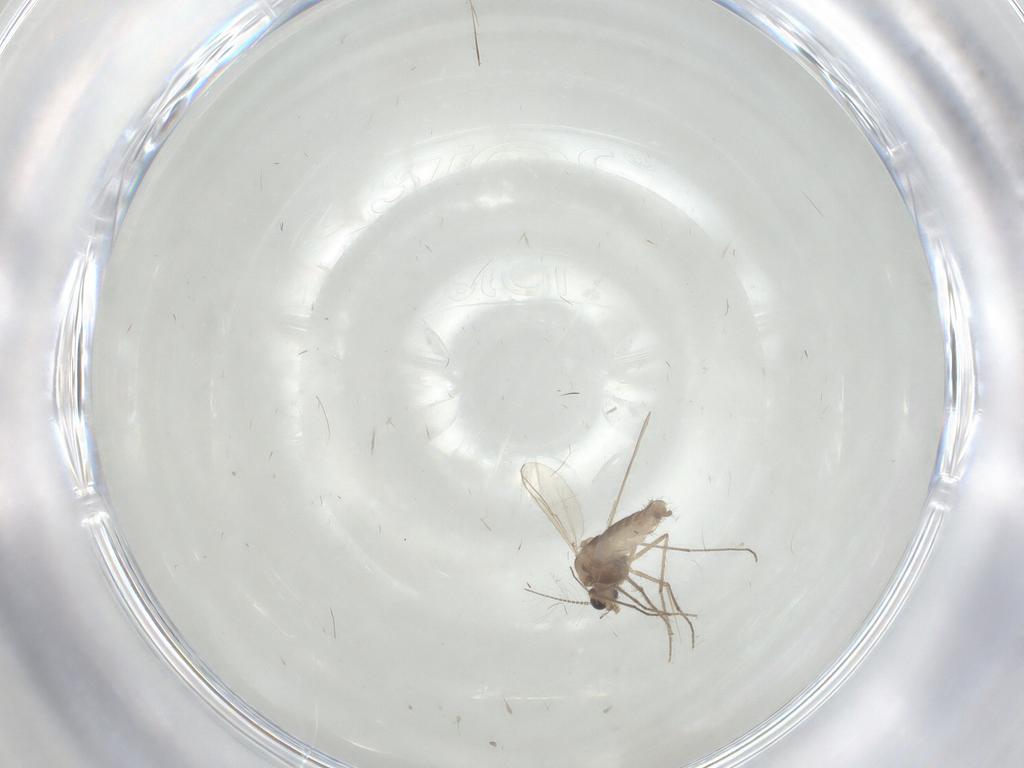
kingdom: Animalia
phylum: Arthropoda
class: Insecta
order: Diptera
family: Chironomidae
